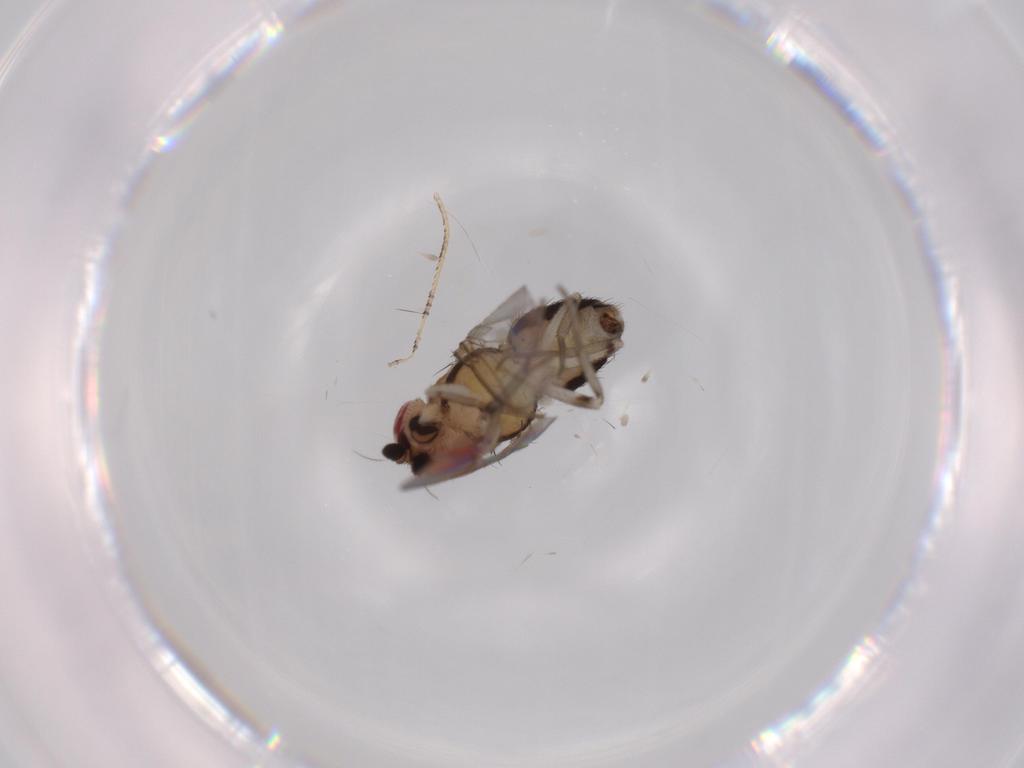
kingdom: Animalia
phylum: Arthropoda
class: Insecta
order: Diptera
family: Drosophilidae
